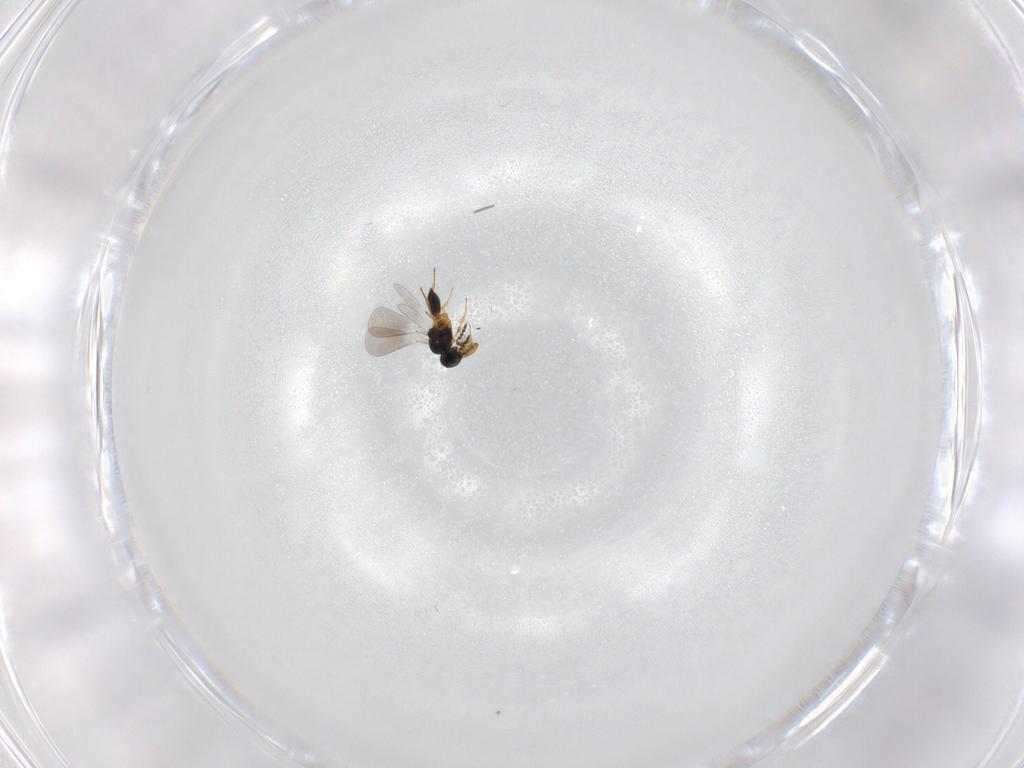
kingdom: Animalia
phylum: Arthropoda
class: Insecta
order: Hymenoptera
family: Platygastridae
